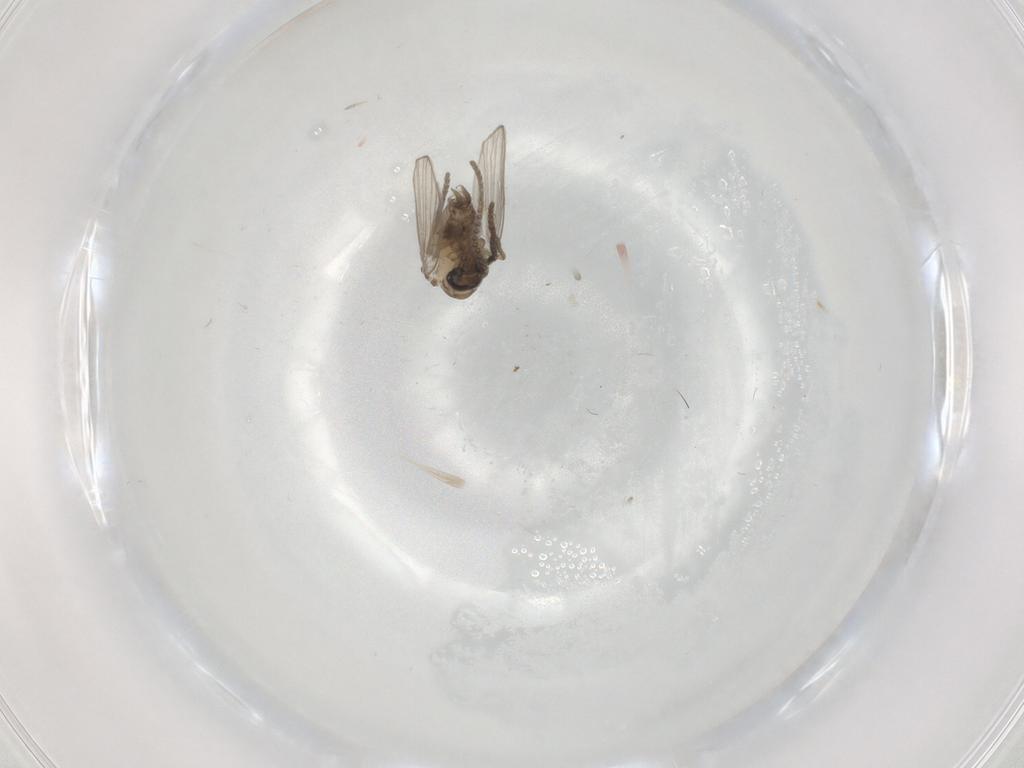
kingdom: Animalia
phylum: Arthropoda
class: Insecta
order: Diptera
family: Psychodidae
